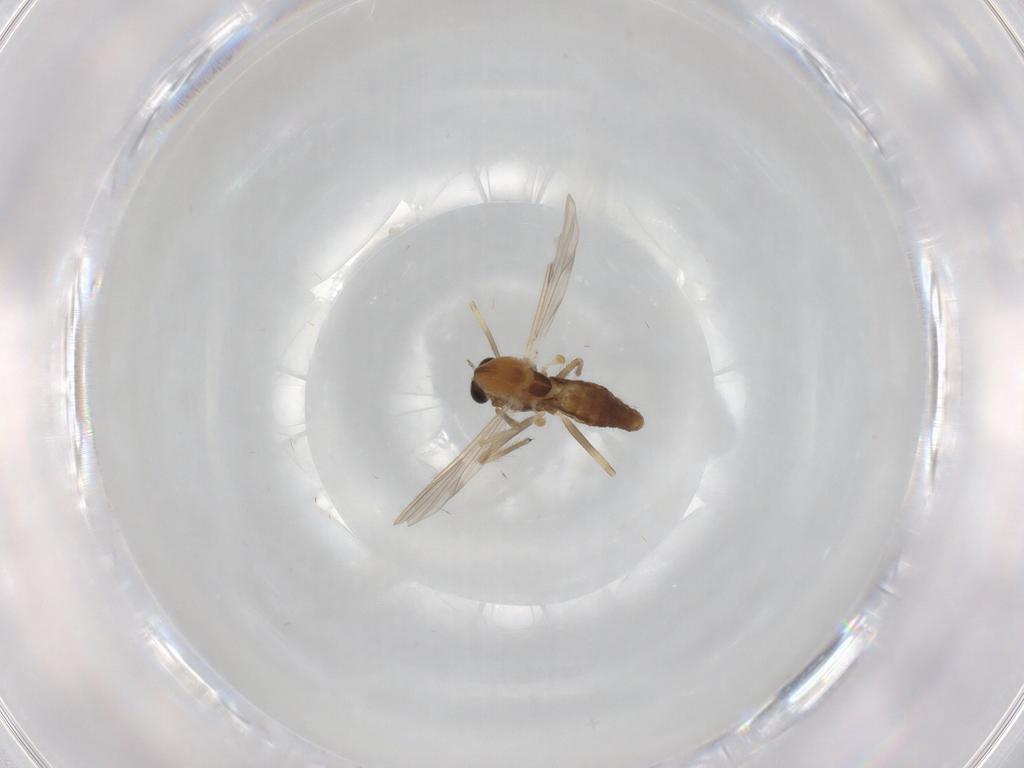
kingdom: Animalia
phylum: Arthropoda
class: Insecta
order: Diptera
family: Chironomidae
